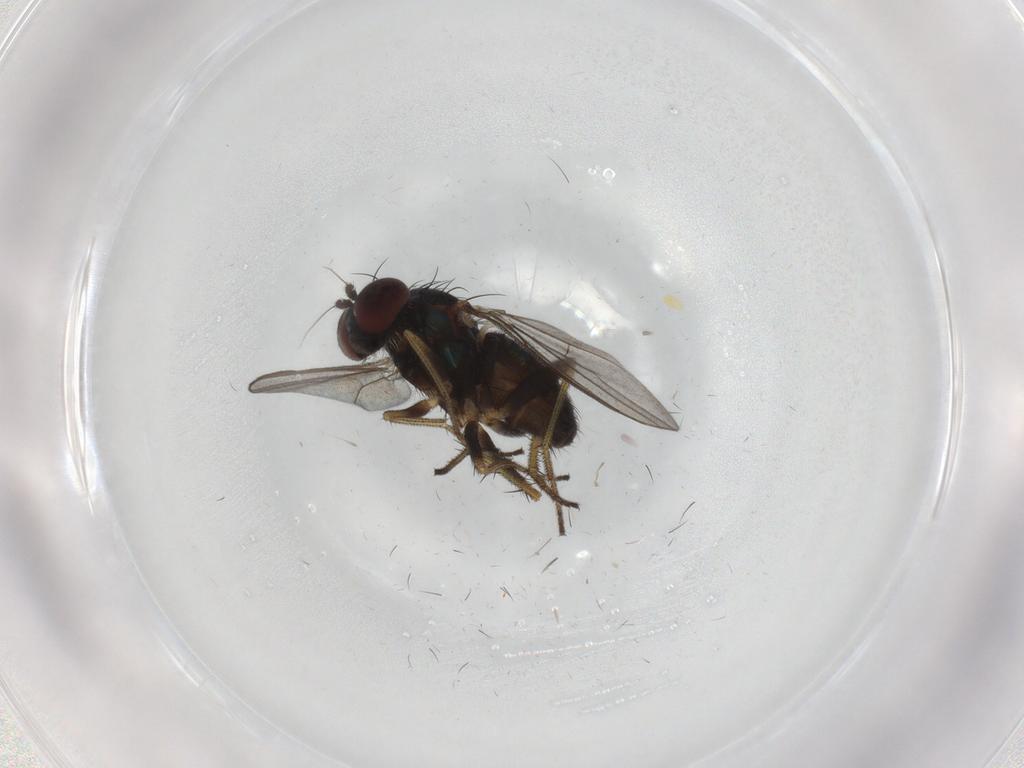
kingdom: Animalia
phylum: Arthropoda
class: Insecta
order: Diptera
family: Dolichopodidae
